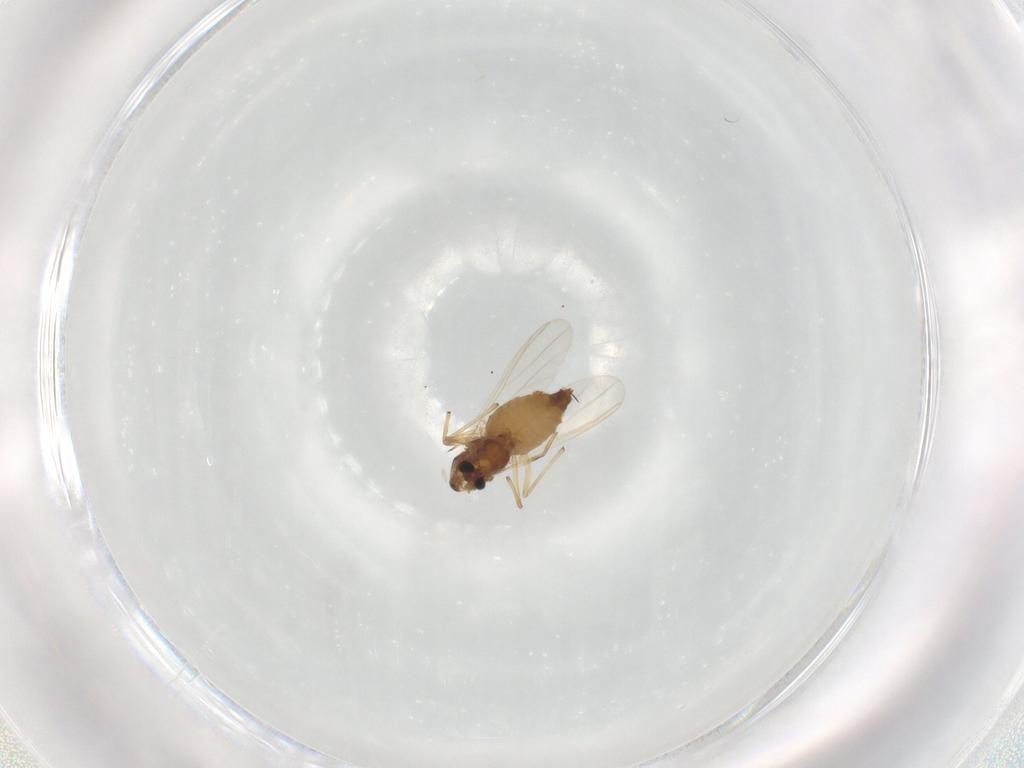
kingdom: Animalia
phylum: Arthropoda
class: Insecta
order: Diptera
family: Chironomidae
